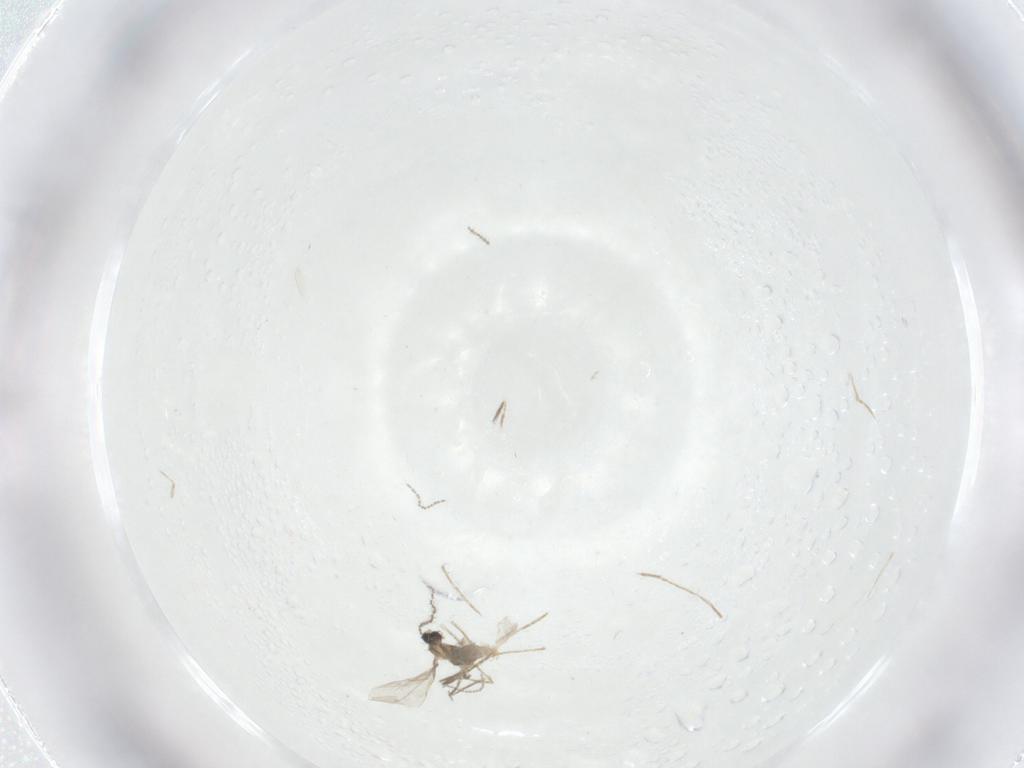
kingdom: Animalia
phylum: Arthropoda
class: Insecta
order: Diptera
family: Cecidomyiidae
